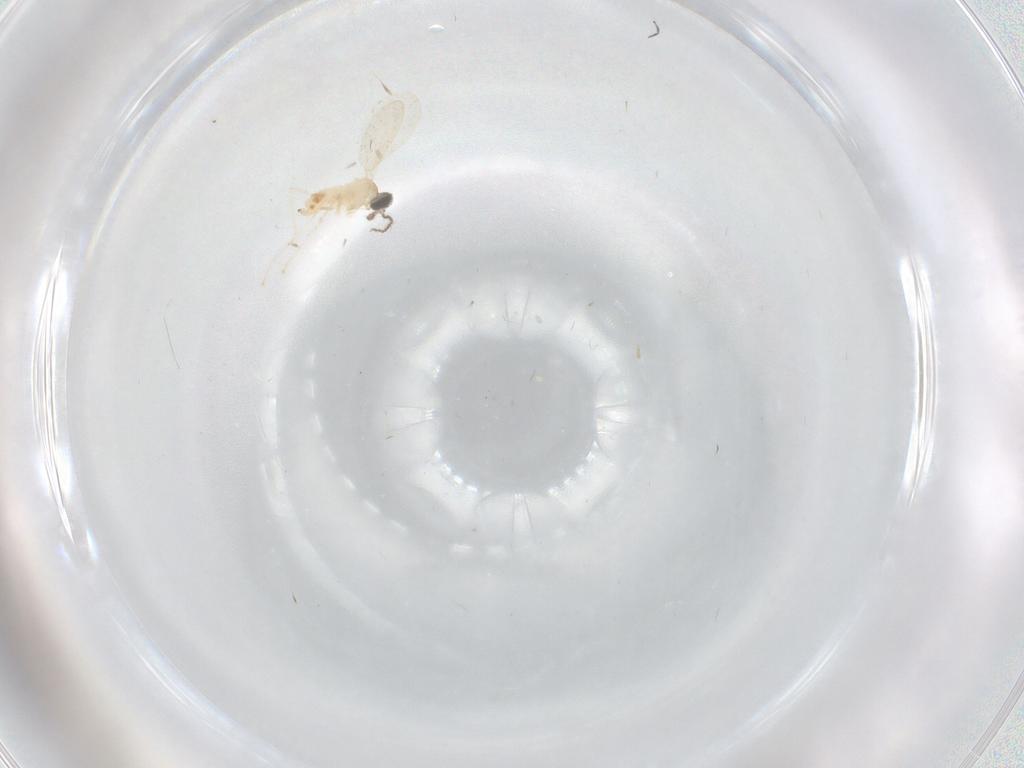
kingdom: Animalia
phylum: Arthropoda
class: Insecta
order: Diptera
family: Cecidomyiidae
